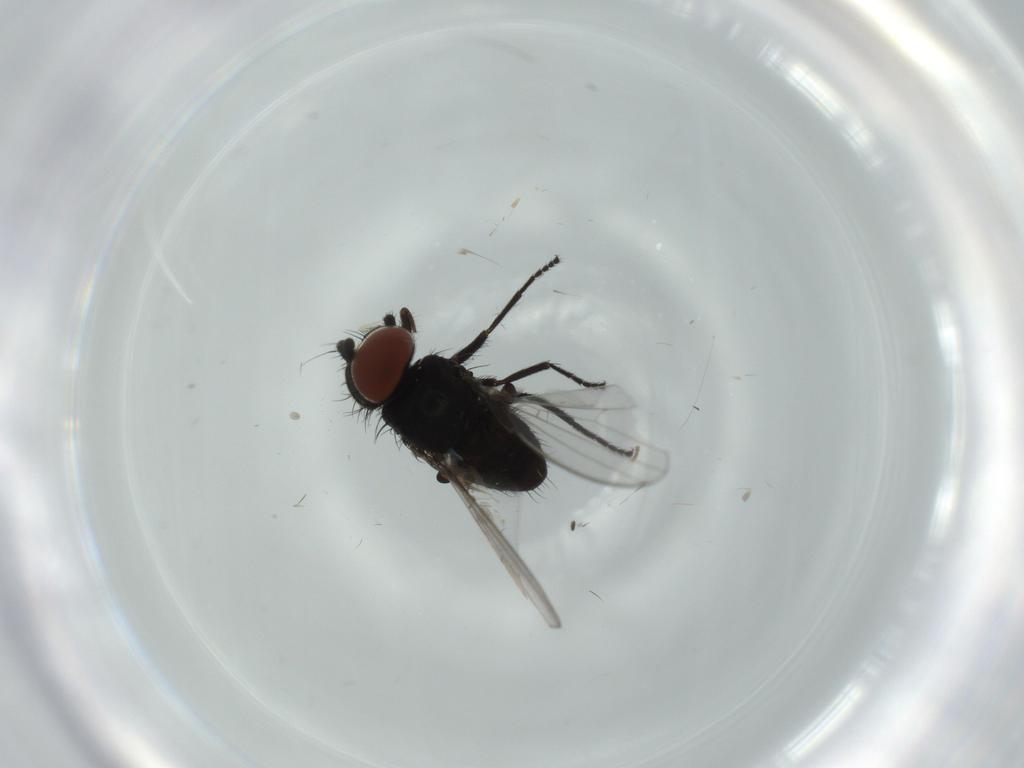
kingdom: Animalia
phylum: Arthropoda
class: Insecta
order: Diptera
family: Milichiidae
